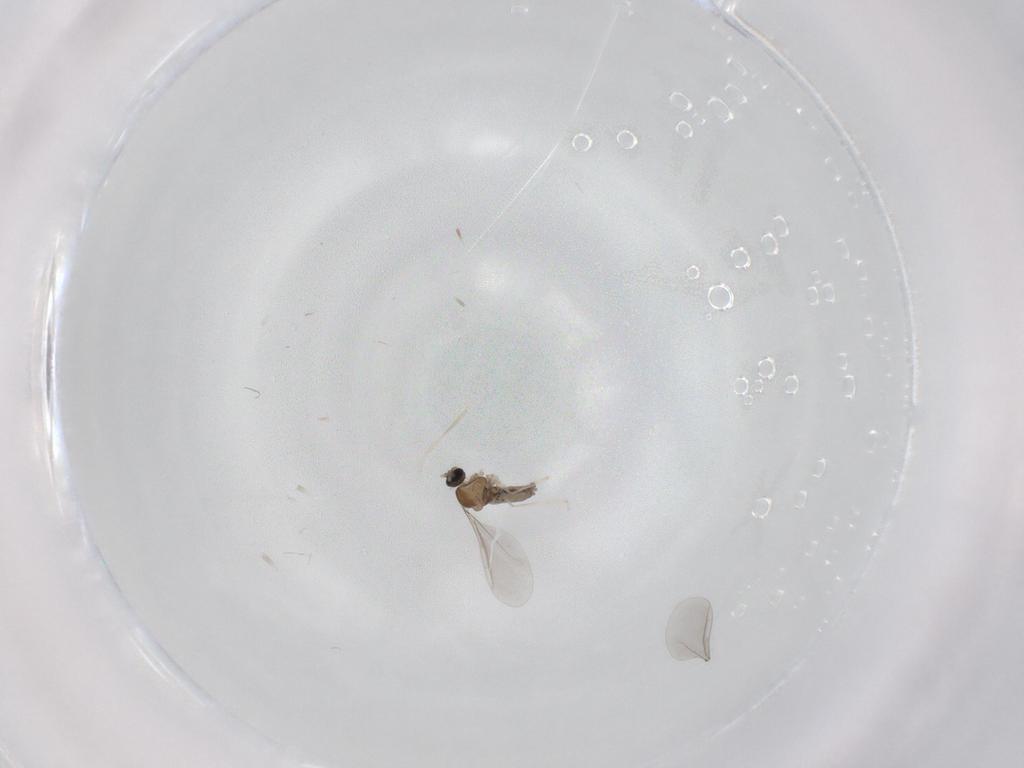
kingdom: Animalia
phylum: Arthropoda
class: Insecta
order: Diptera
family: Cecidomyiidae
